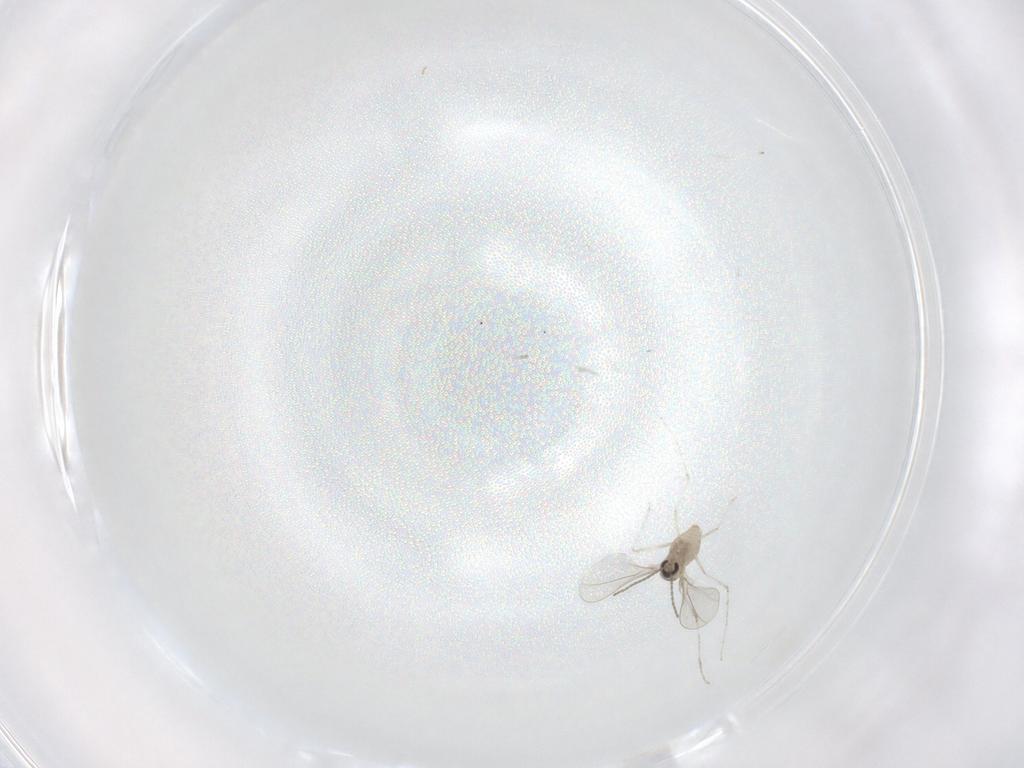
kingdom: Animalia
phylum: Arthropoda
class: Insecta
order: Diptera
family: Cecidomyiidae
